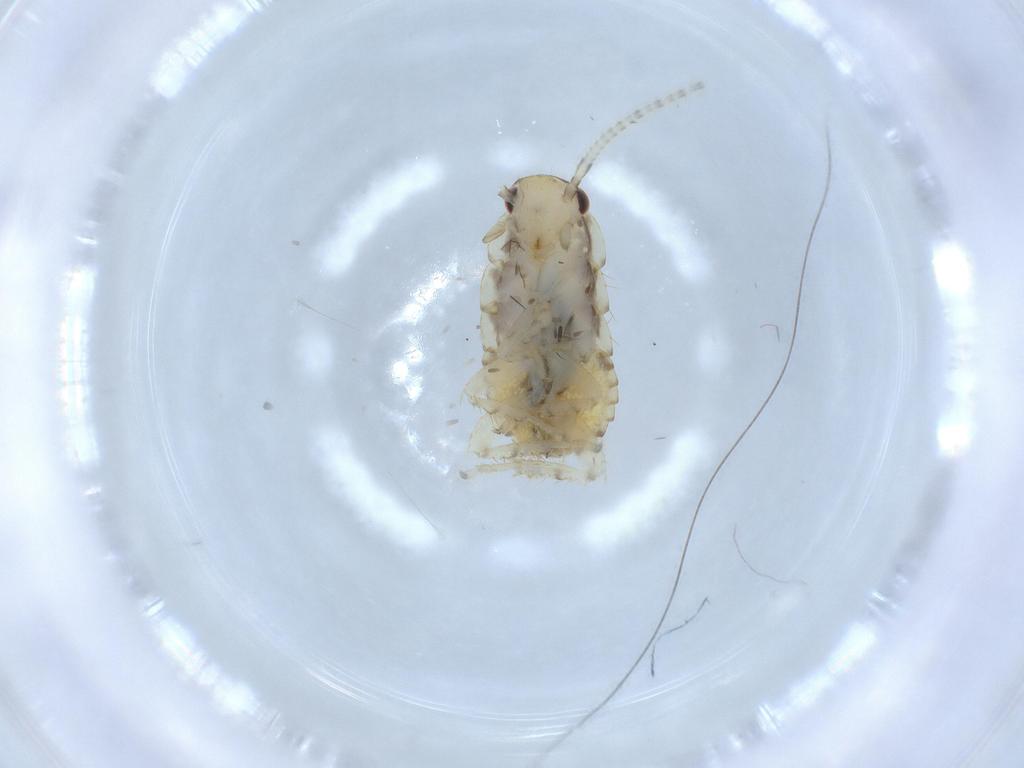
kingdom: Animalia
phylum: Arthropoda
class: Insecta
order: Blattodea
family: Ectobiidae
